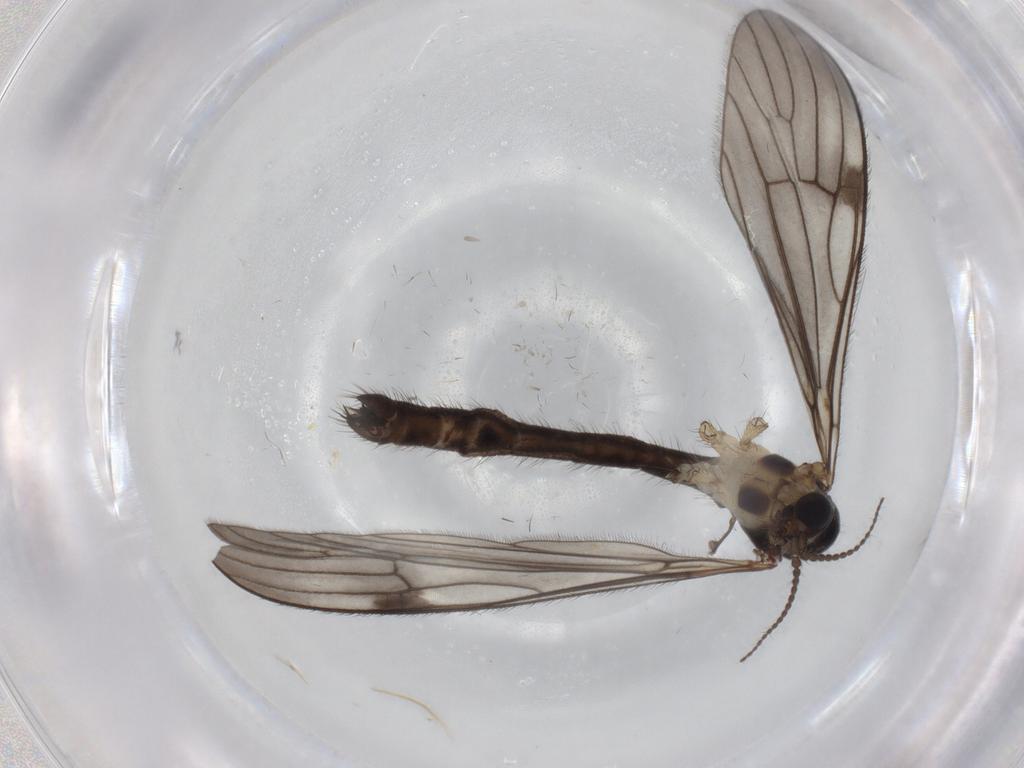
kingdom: Animalia
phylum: Arthropoda
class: Insecta
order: Diptera
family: Limoniidae
